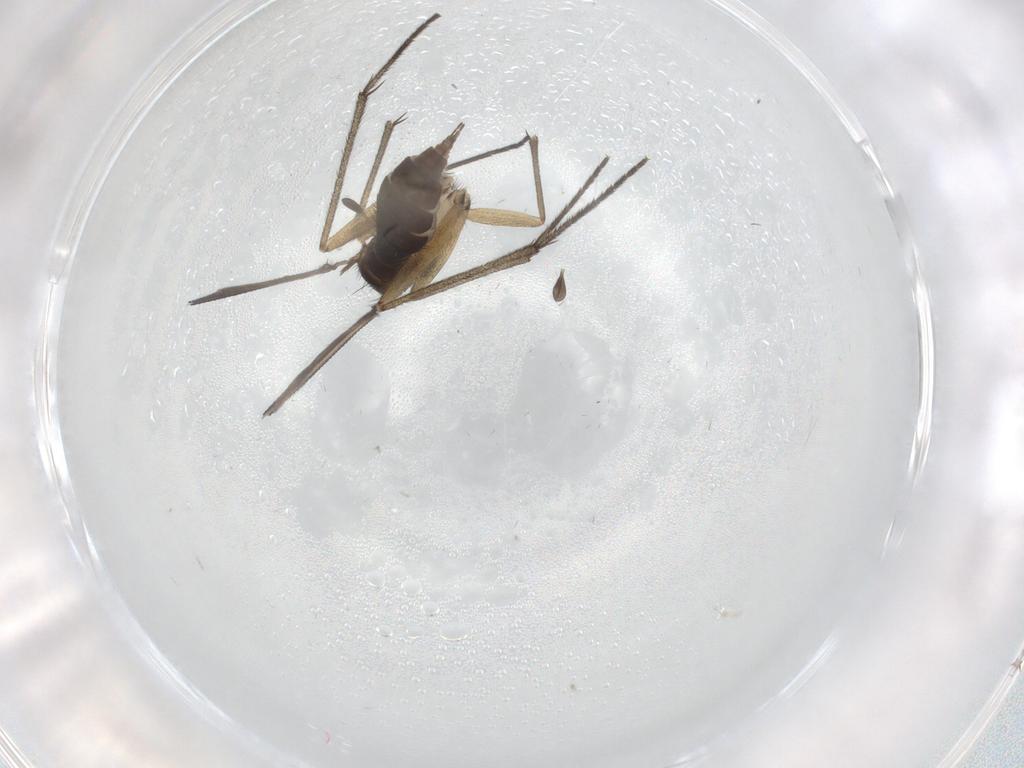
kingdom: Animalia
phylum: Arthropoda
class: Insecta
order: Diptera
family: Sciaridae
